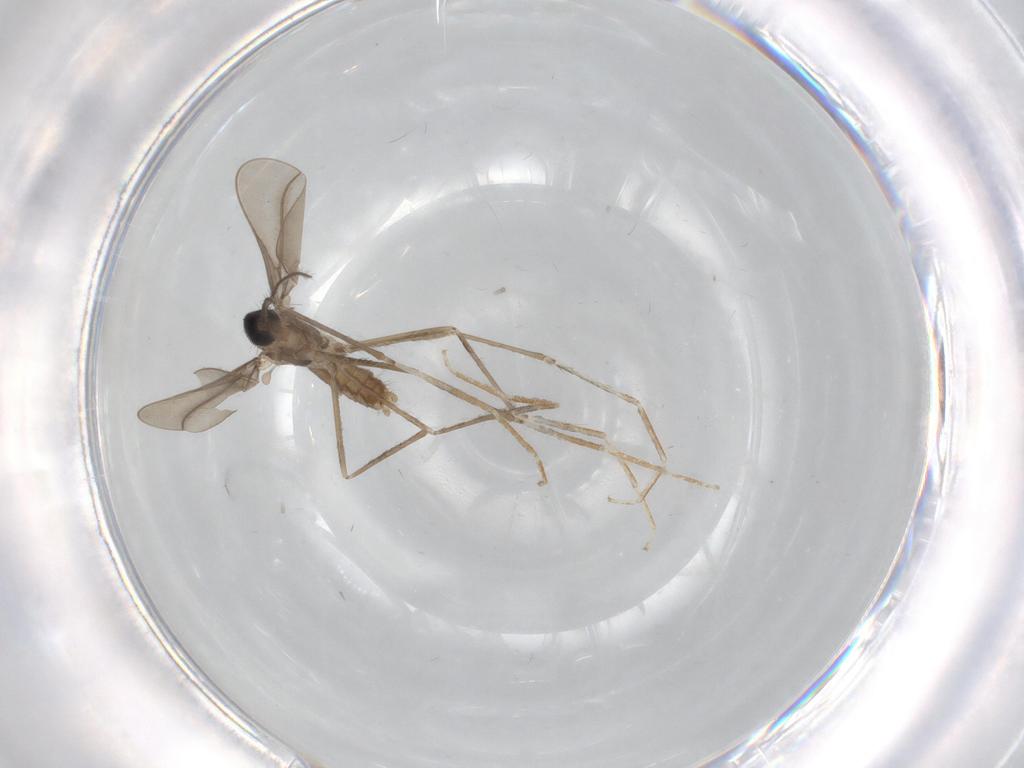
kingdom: Animalia
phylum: Arthropoda
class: Insecta
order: Diptera
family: Cecidomyiidae
